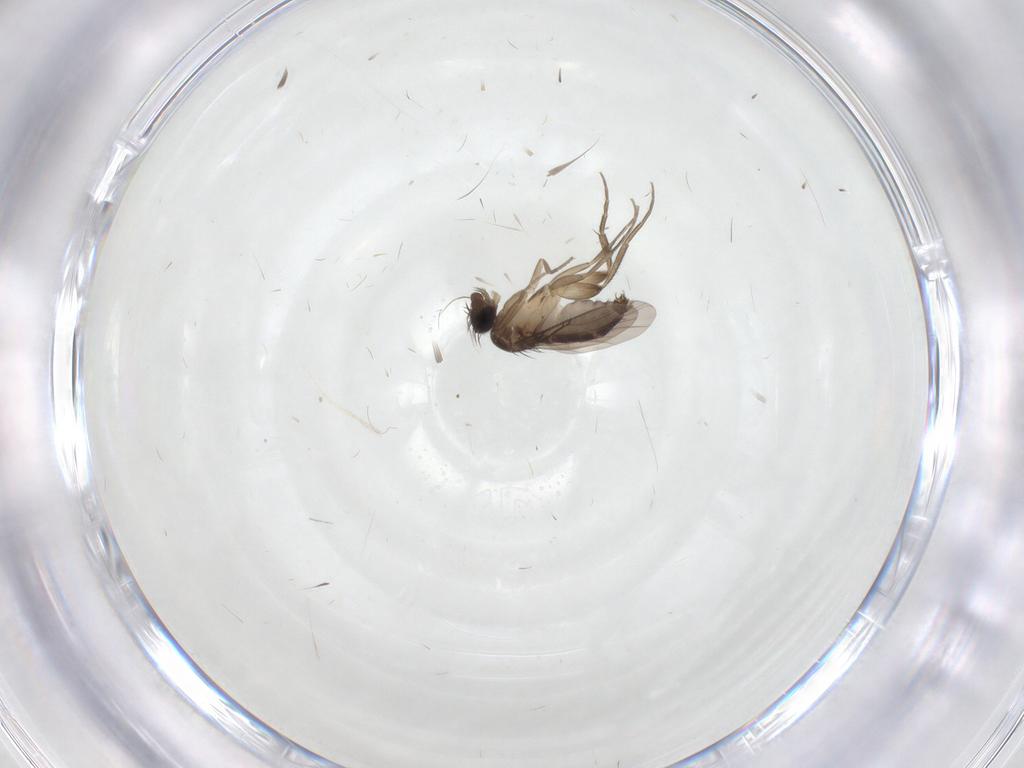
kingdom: Animalia
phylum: Arthropoda
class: Insecta
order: Diptera
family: Phoridae
